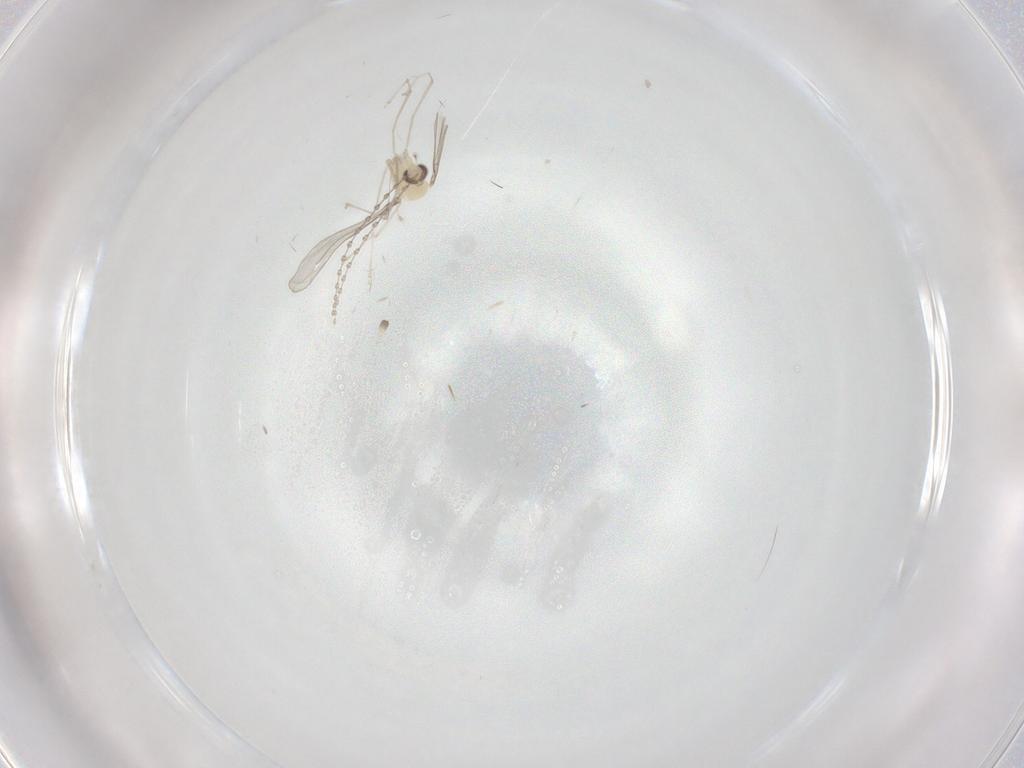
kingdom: Animalia
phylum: Arthropoda
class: Insecta
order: Diptera
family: Cecidomyiidae
